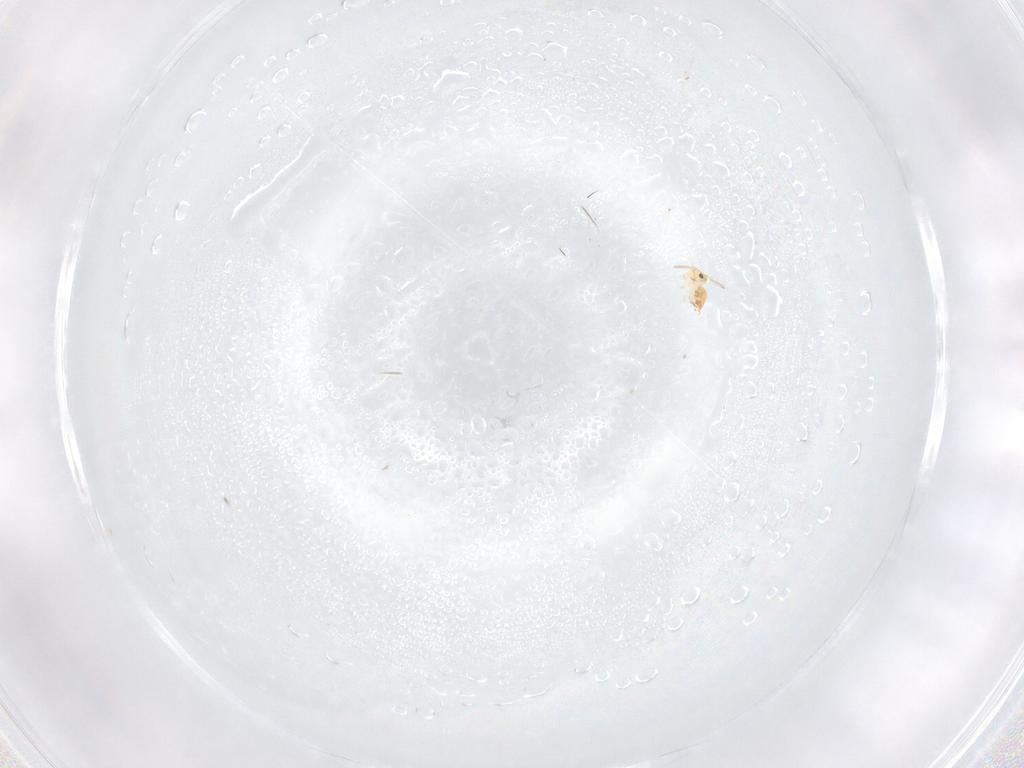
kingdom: Animalia
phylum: Arthropoda
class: Collembola
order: Symphypleona
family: Bourletiellidae
